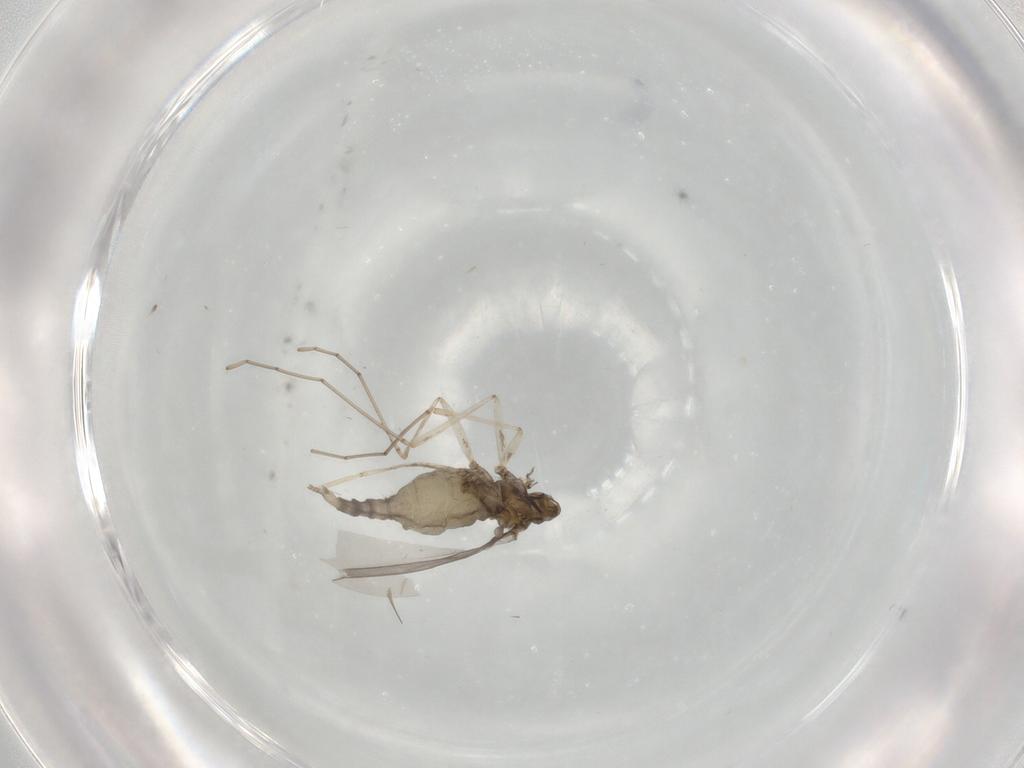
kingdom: Animalia
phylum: Arthropoda
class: Insecta
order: Diptera
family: Cecidomyiidae
